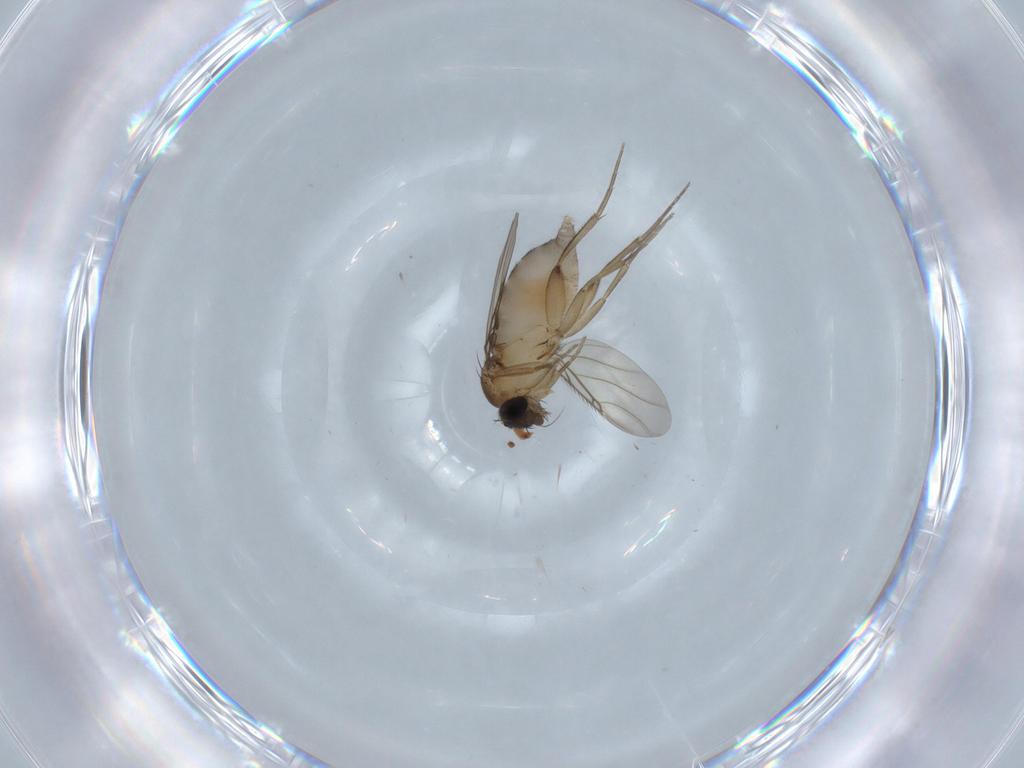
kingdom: Animalia
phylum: Arthropoda
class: Insecta
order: Diptera
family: Phoridae
